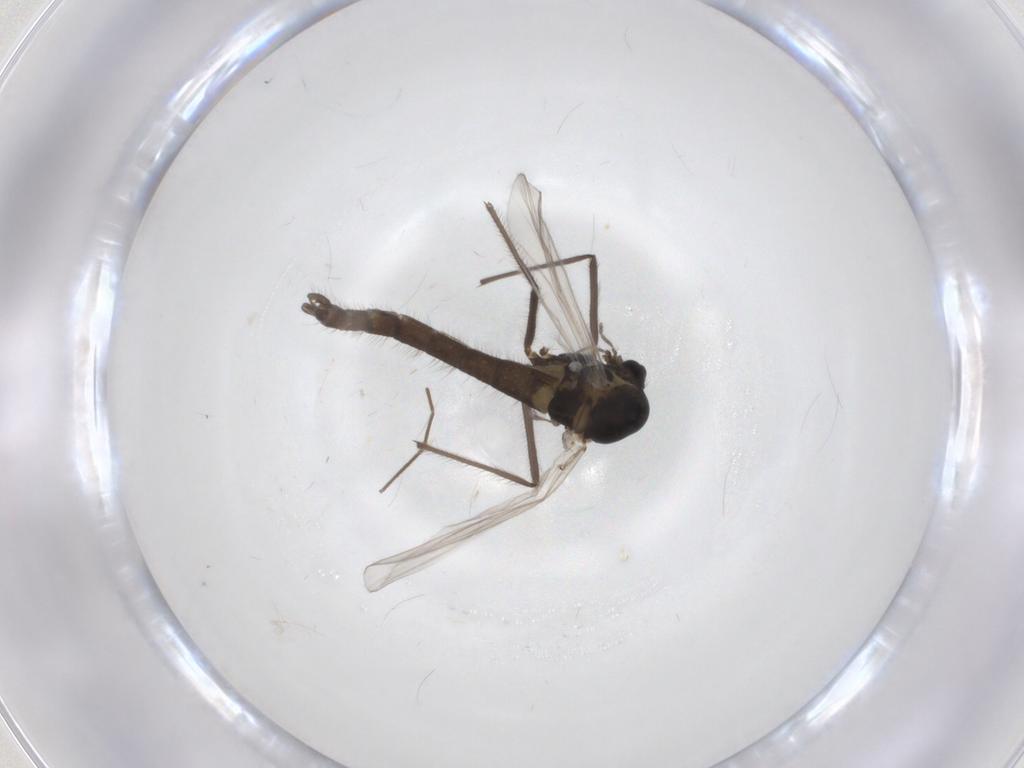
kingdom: Animalia
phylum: Arthropoda
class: Insecta
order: Diptera
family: Chironomidae
